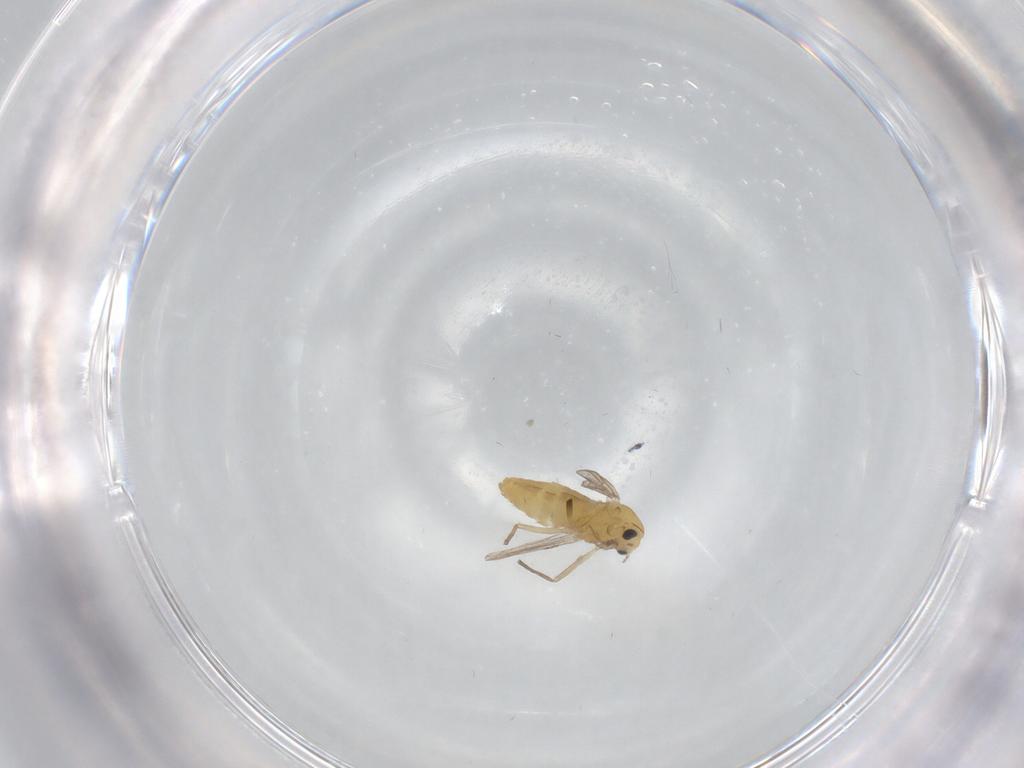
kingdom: Animalia
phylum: Arthropoda
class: Insecta
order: Diptera
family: Chironomidae
